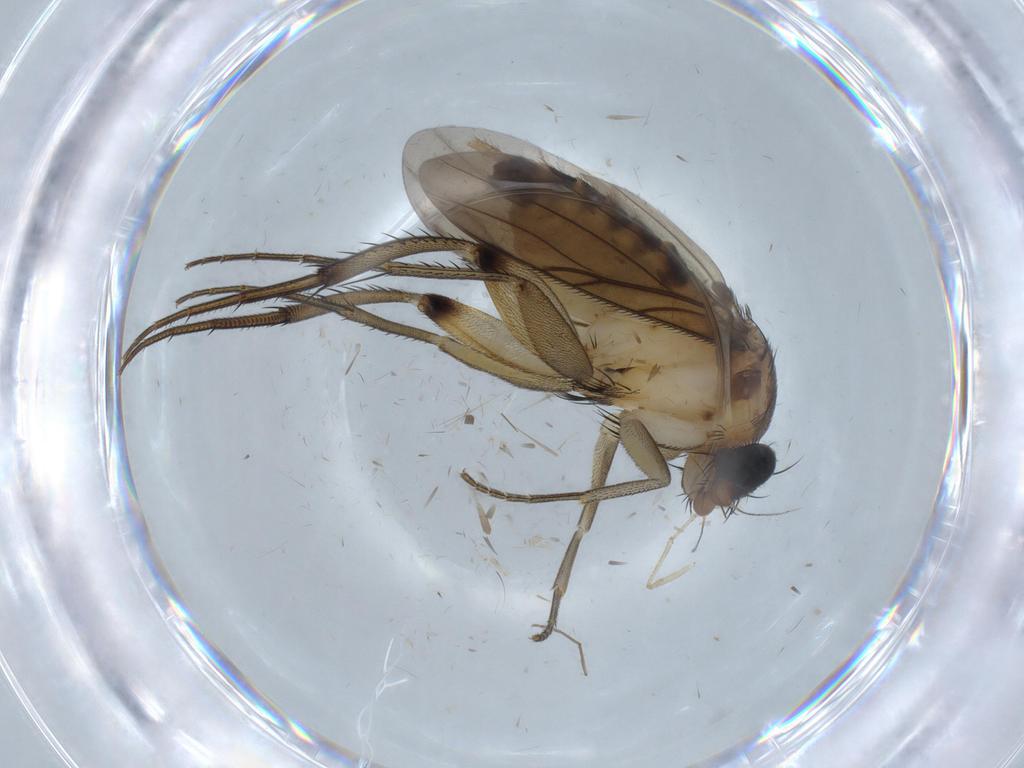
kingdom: Animalia
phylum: Arthropoda
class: Insecta
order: Diptera
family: Phoridae
